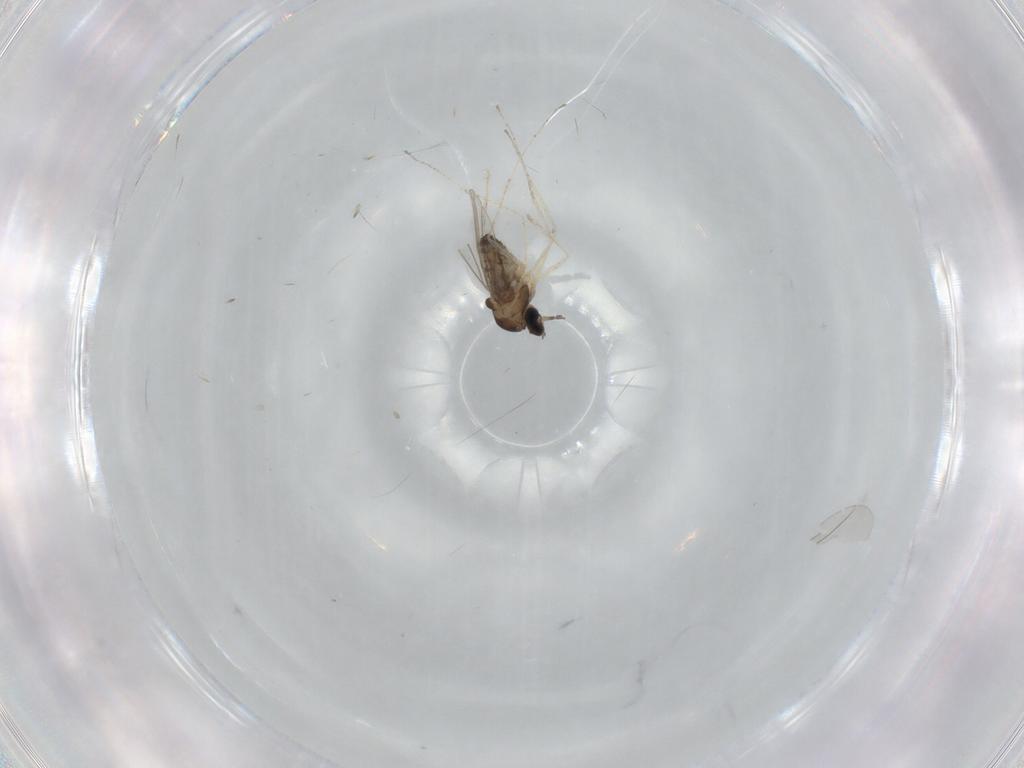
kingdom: Animalia
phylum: Arthropoda
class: Insecta
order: Diptera
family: Cecidomyiidae
